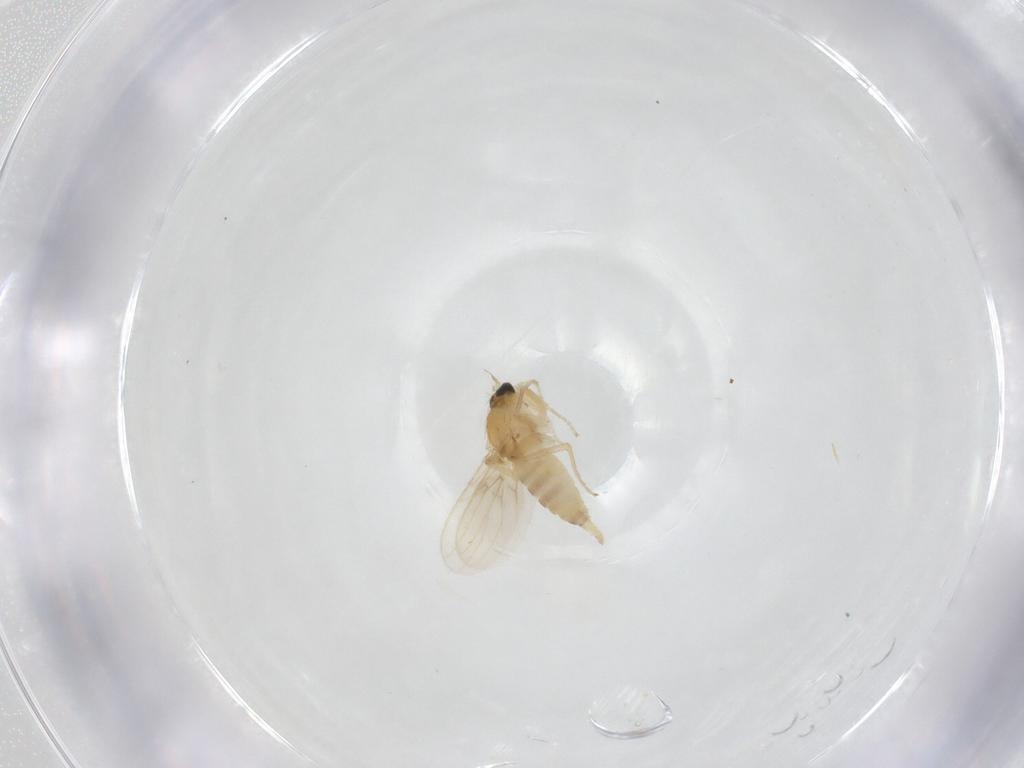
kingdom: Animalia
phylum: Arthropoda
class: Insecta
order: Diptera
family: Hybotidae
